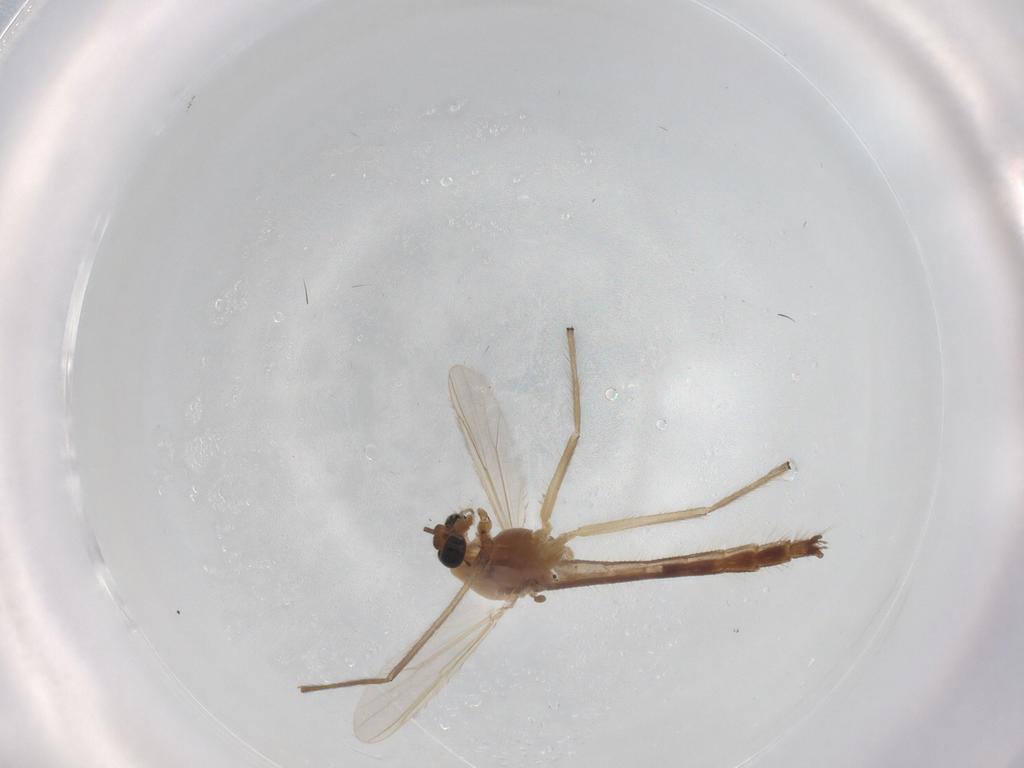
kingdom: Animalia
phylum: Arthropoda
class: Insecta
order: Diptera
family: Chironomidae
